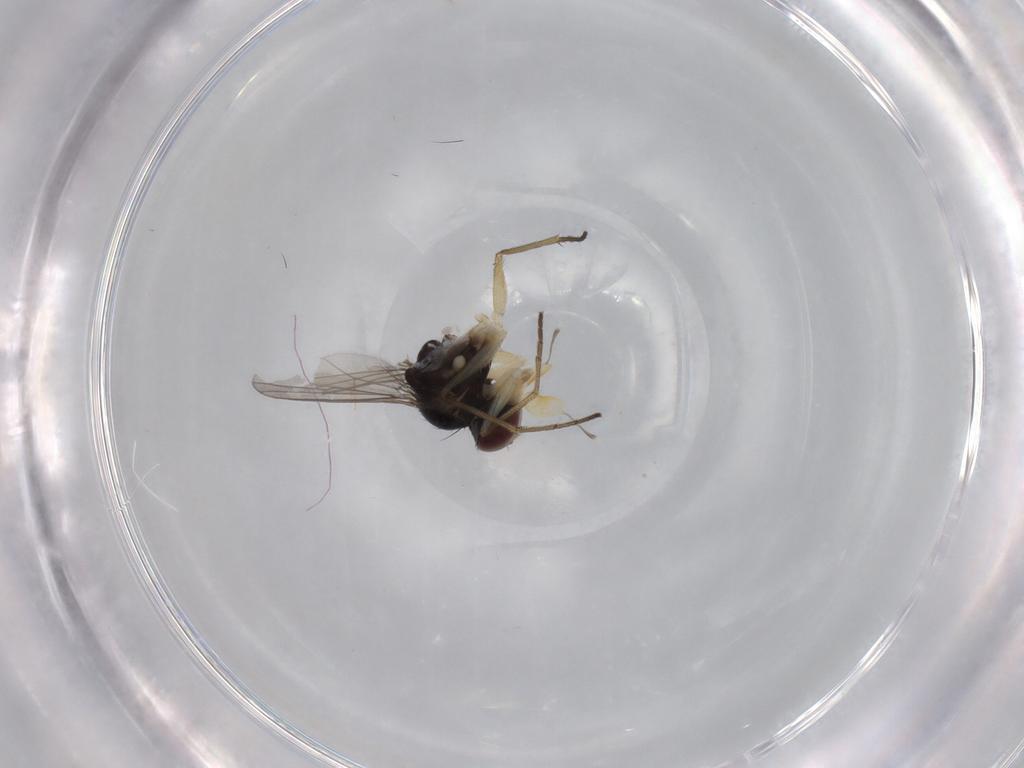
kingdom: Animalia
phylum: Arthropoda
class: Insecta
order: Diptera
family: Dolichopodidae
